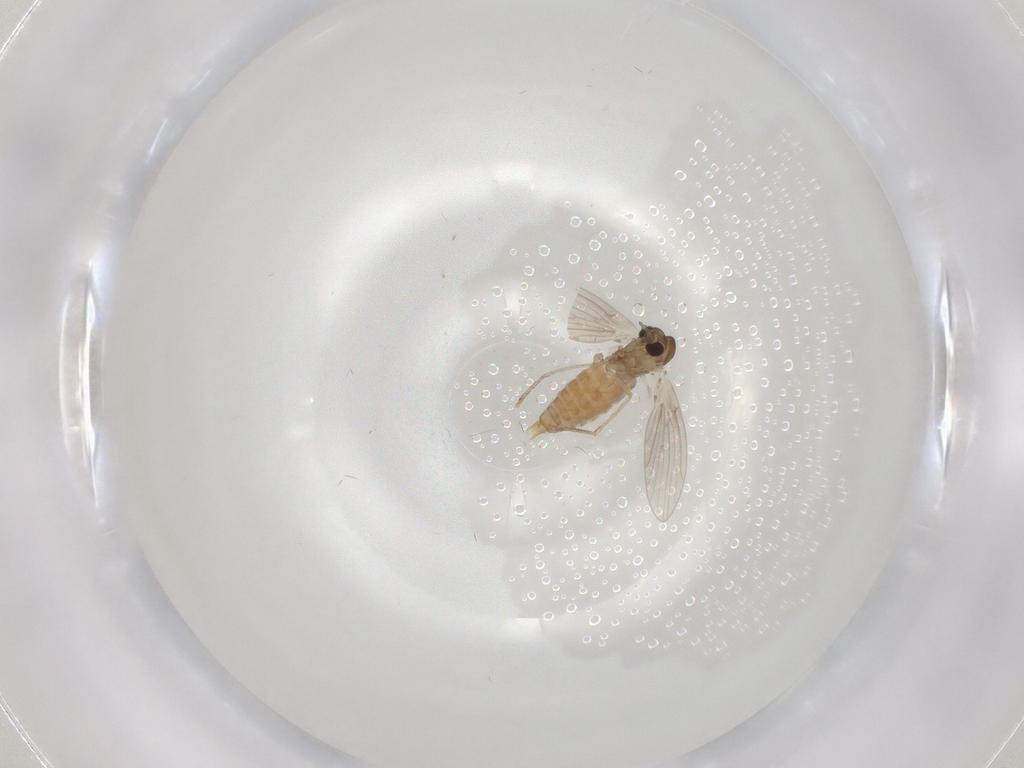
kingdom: Animalia
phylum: Arthropoda
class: Insecta
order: Diptera
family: Psychodidae
